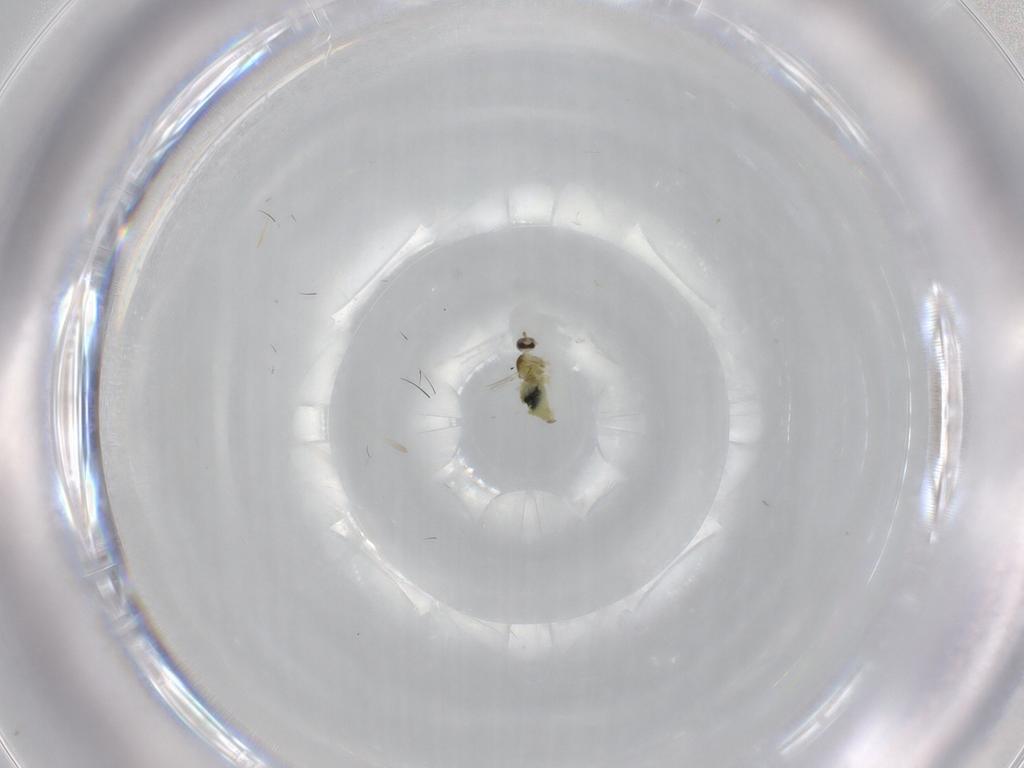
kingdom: Animalia
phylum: Arthropoda
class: Insecta
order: Diptera
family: Cecidomyiidae
